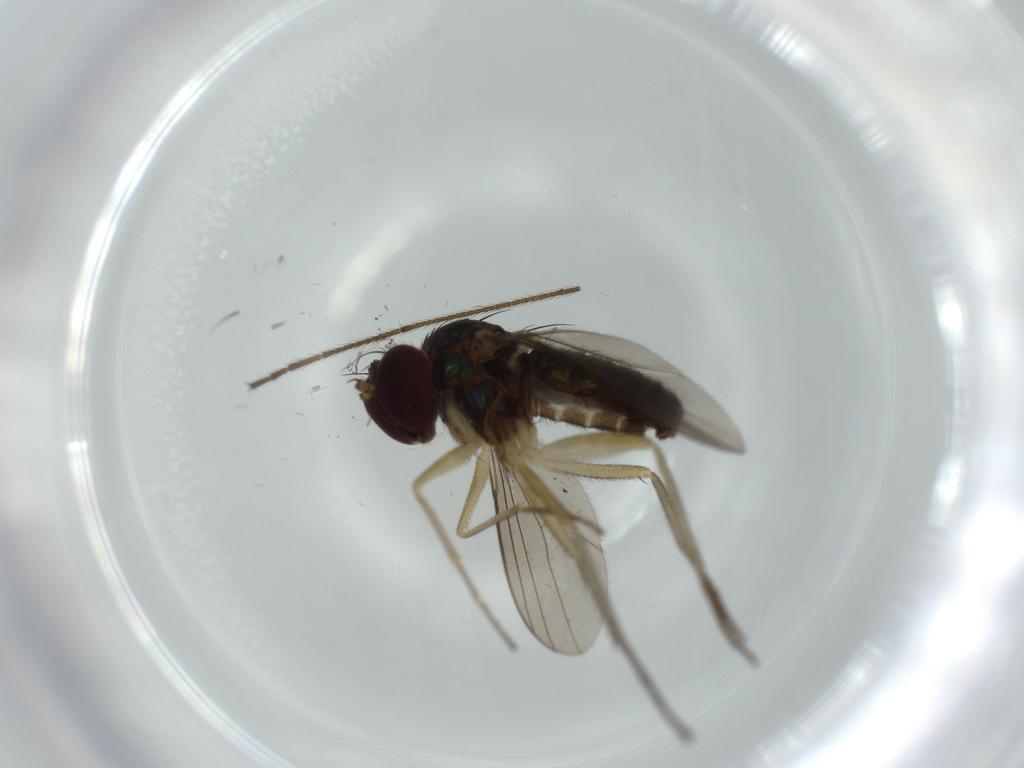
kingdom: Animalia
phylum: Arthropoda
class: Insecta
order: Diptera
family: Dolichopodidae
